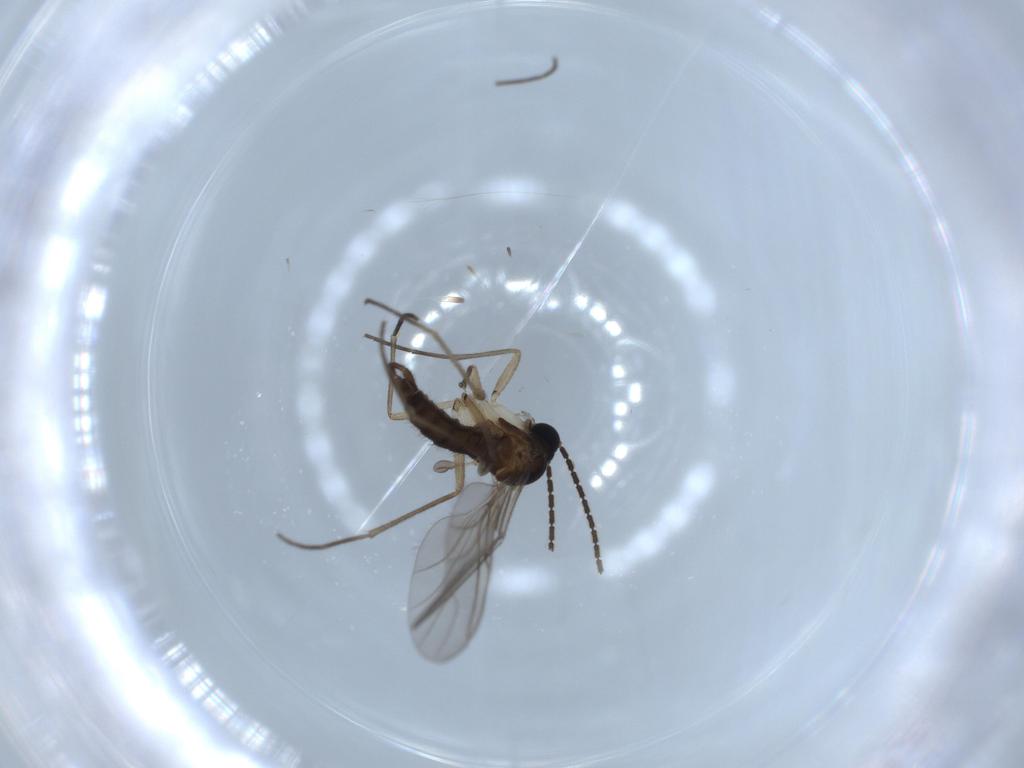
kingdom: Animalia
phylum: Arthropoda
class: Insecta
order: Diptera
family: Sciaridae
